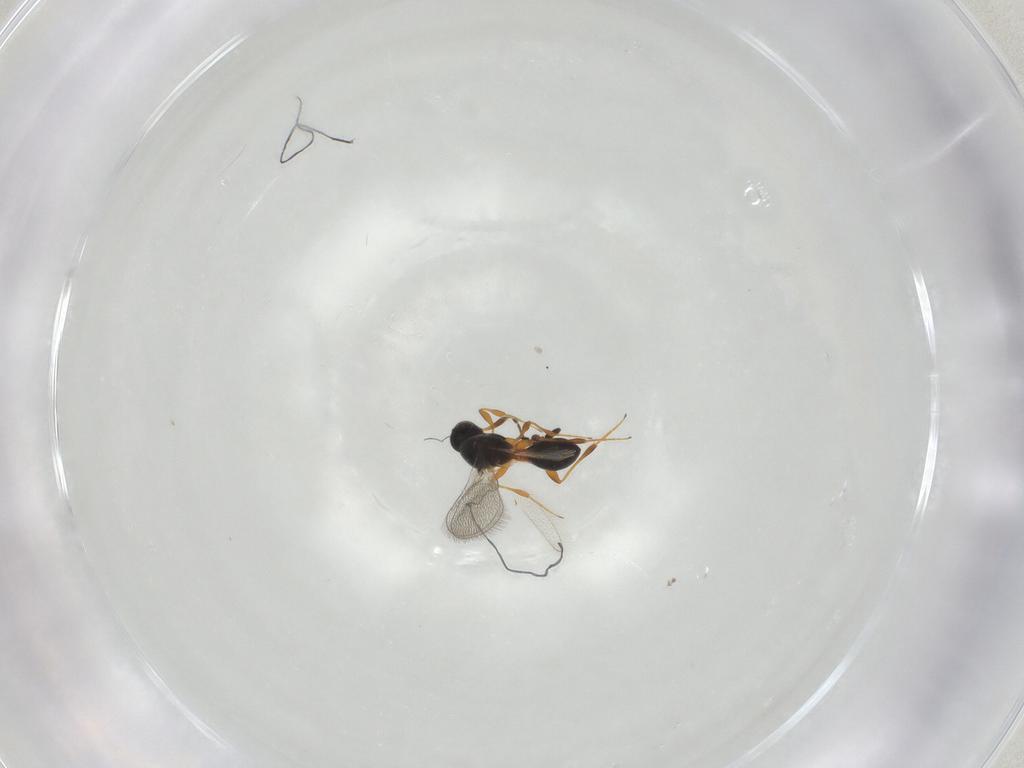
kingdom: Animalia
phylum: Arthropoda
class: Insecta
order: Hymenoptera
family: Platygastridae
